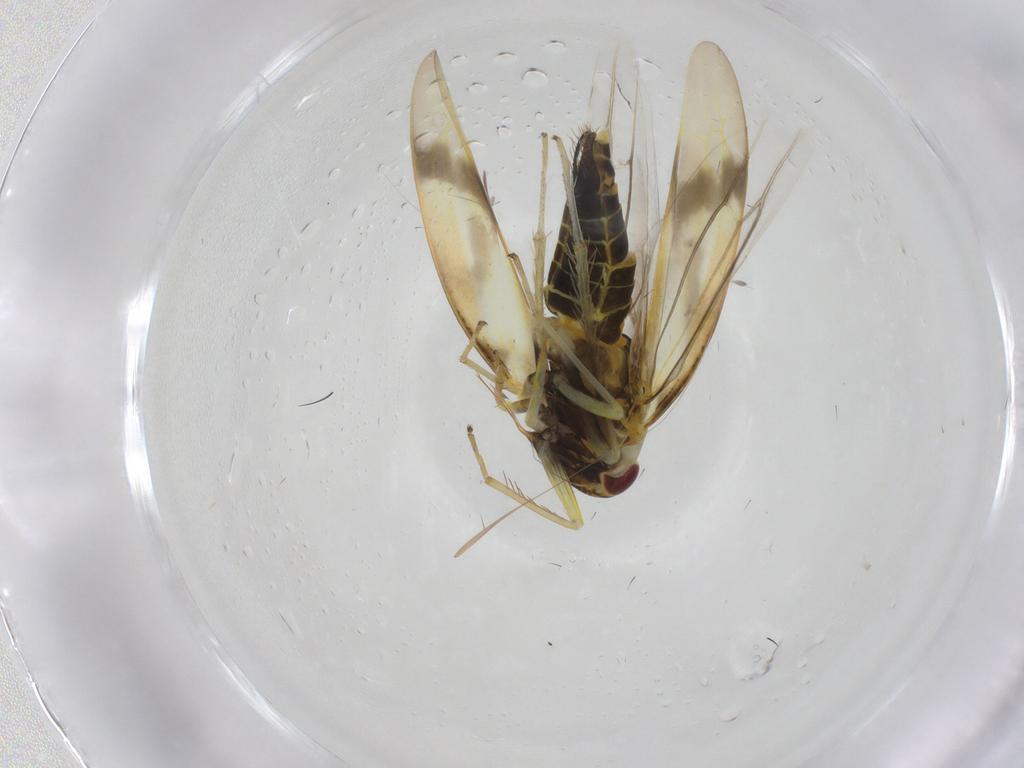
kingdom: Animalia
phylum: Arthropoda
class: Insecta
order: Hemiptera
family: Cicadellidae
